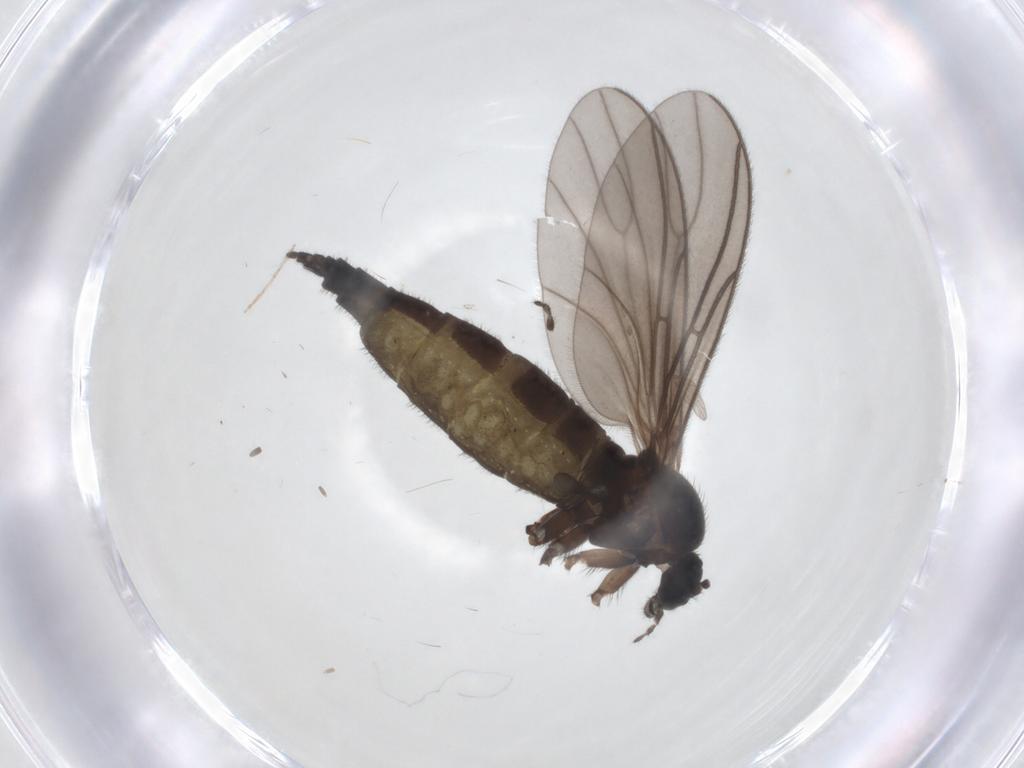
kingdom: Animalia
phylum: Arthropoda
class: Insecta
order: Diptera
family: Chironomidae
